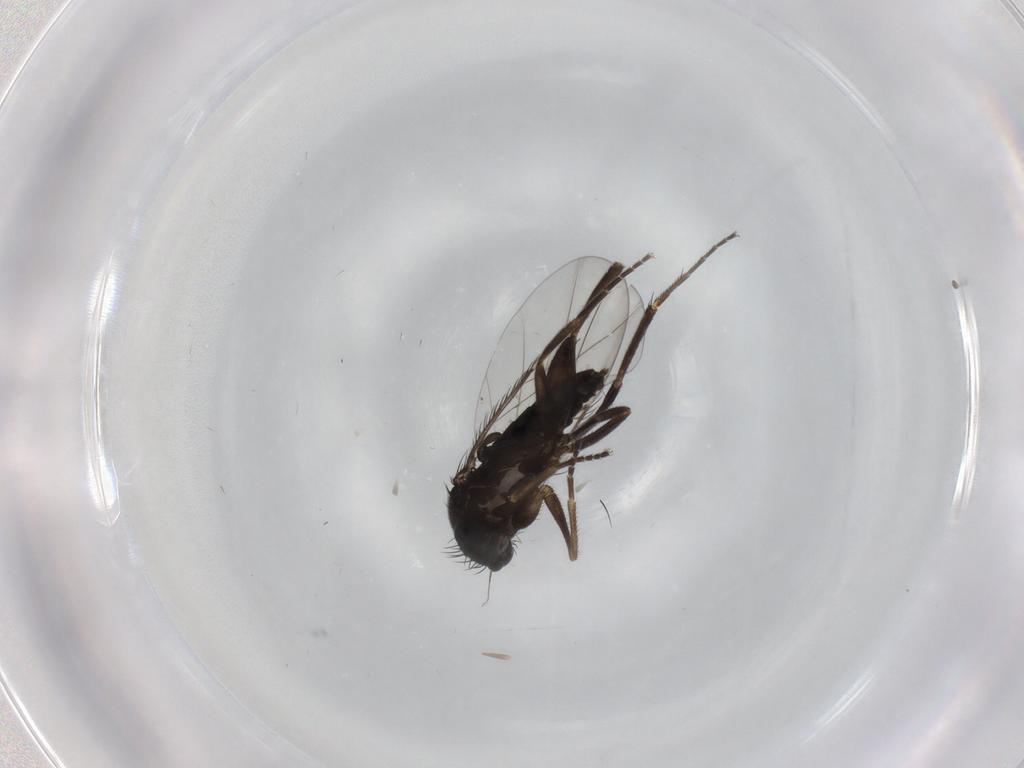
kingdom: Animalia
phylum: Arthropoda
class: Insecta
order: Diptera
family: Phoridae
